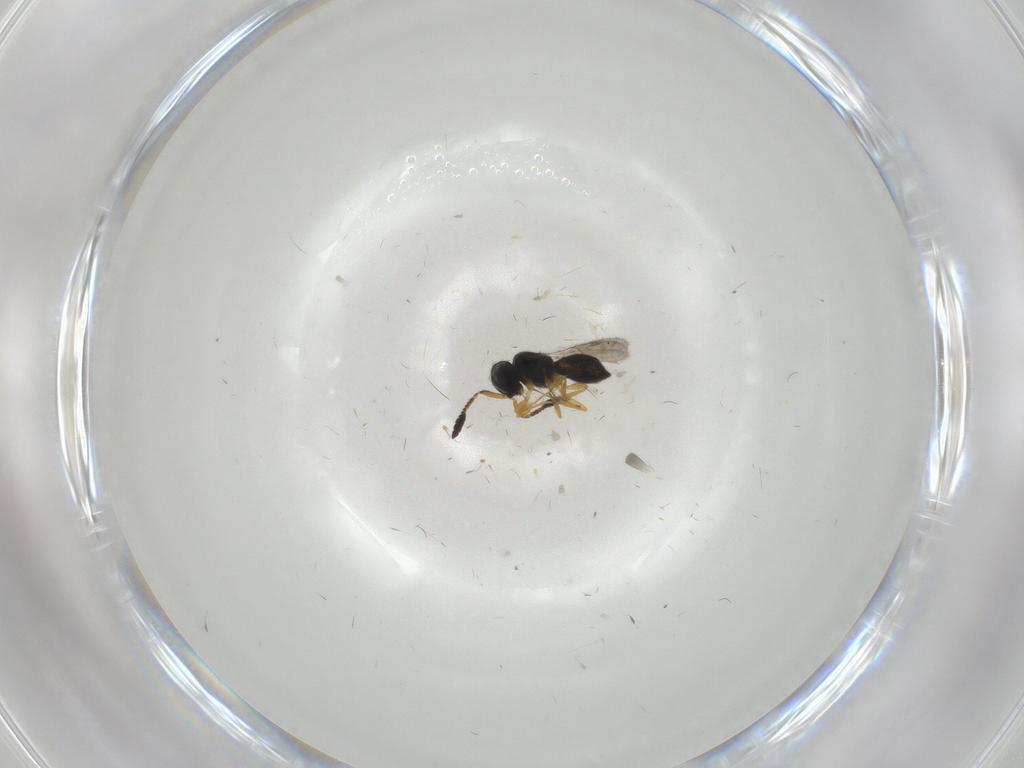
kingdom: Animalia
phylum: Arthropoda
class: Insecta
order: Hymenoptera
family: Scelionidae
